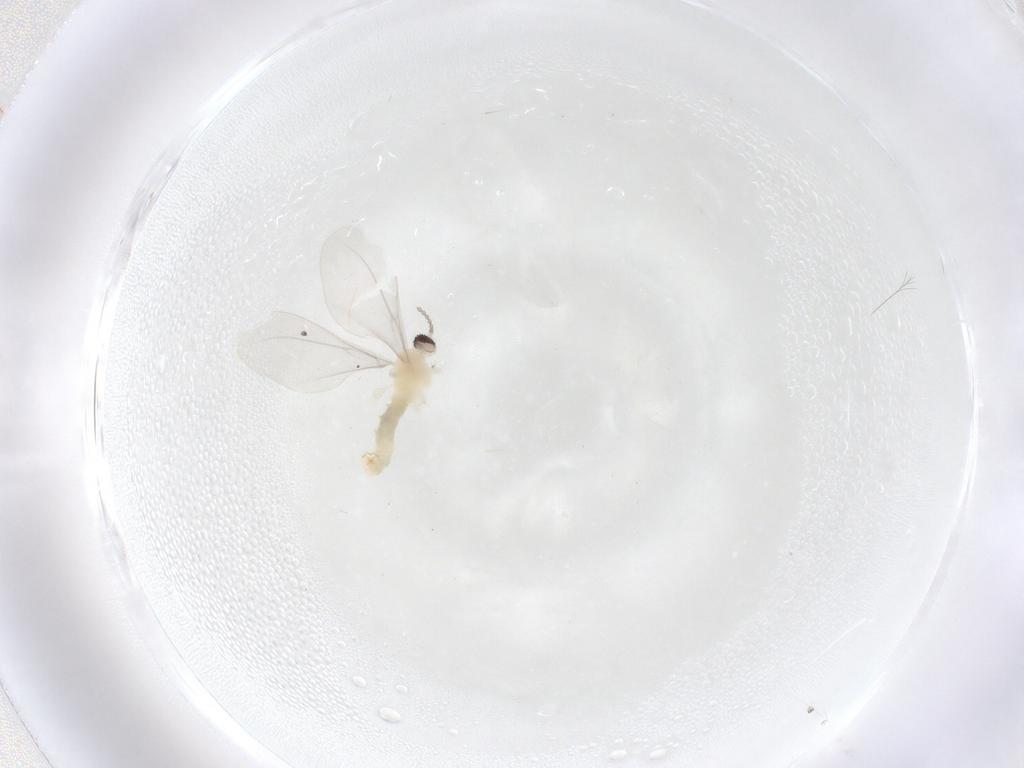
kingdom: Animalia
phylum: Arthropoda
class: Insecta
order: Diptera
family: Cecidomyiidae
